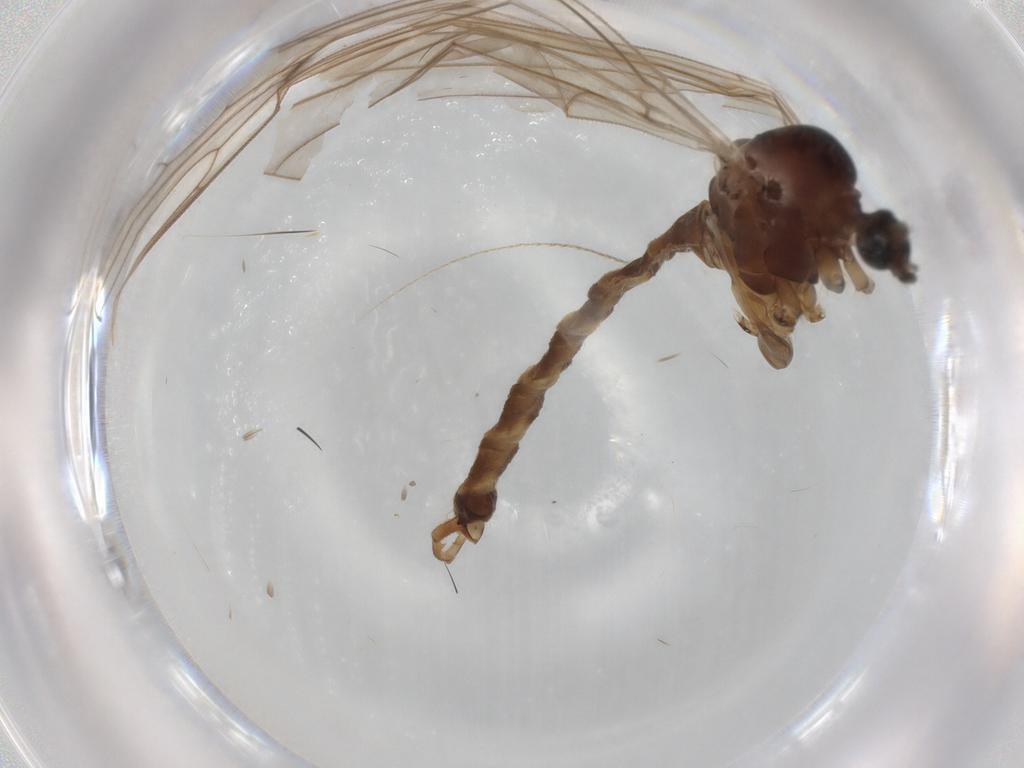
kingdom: Animalia
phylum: Arthropoda
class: Insecta
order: Diptera
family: Trichoceridae
